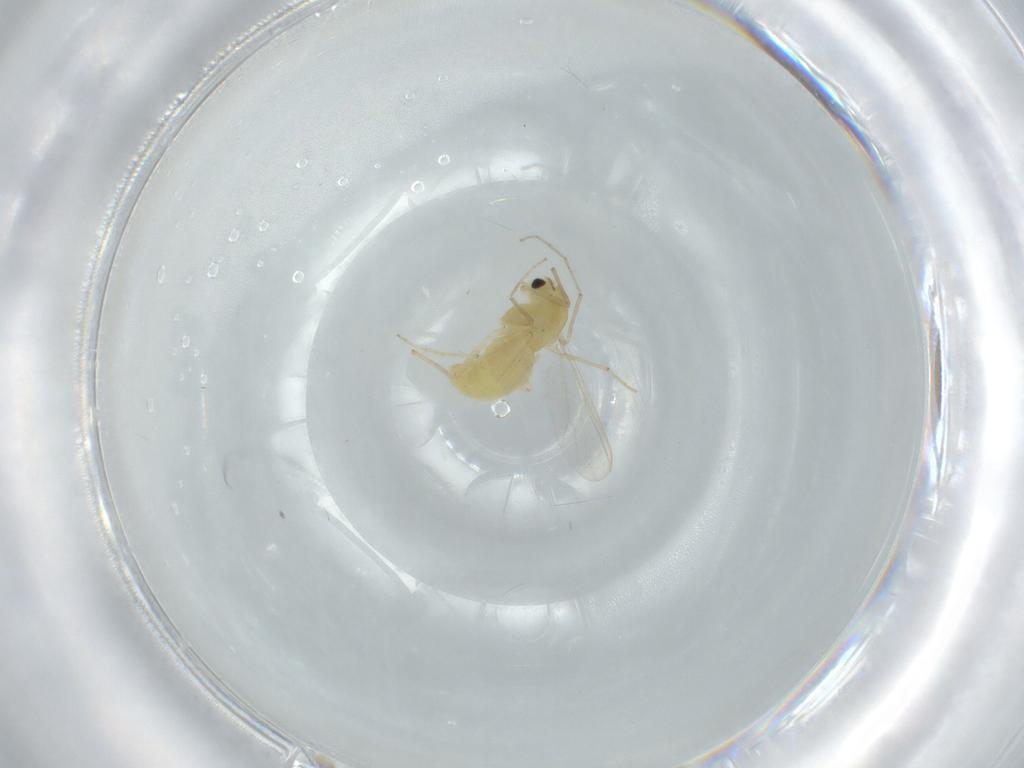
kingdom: Animalia
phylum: Arthropoda
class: Insecta
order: Diptera
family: Chironomidae
